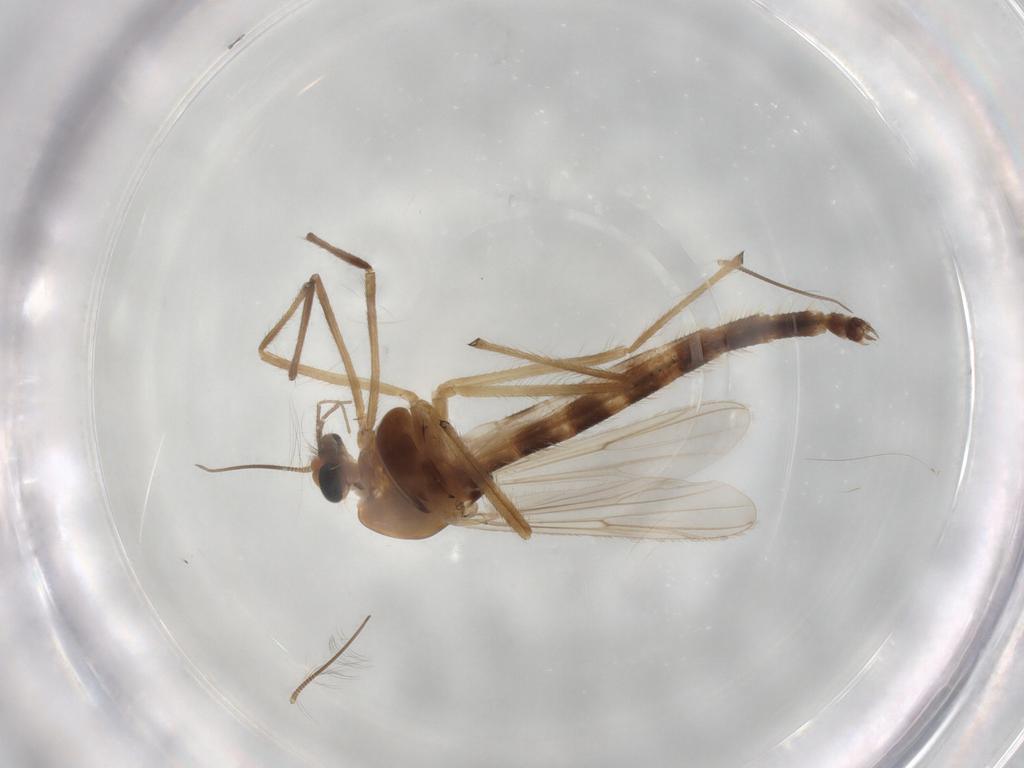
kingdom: Animalia
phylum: Arthropoda
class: Insecta
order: Diptera
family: Chironomidae
